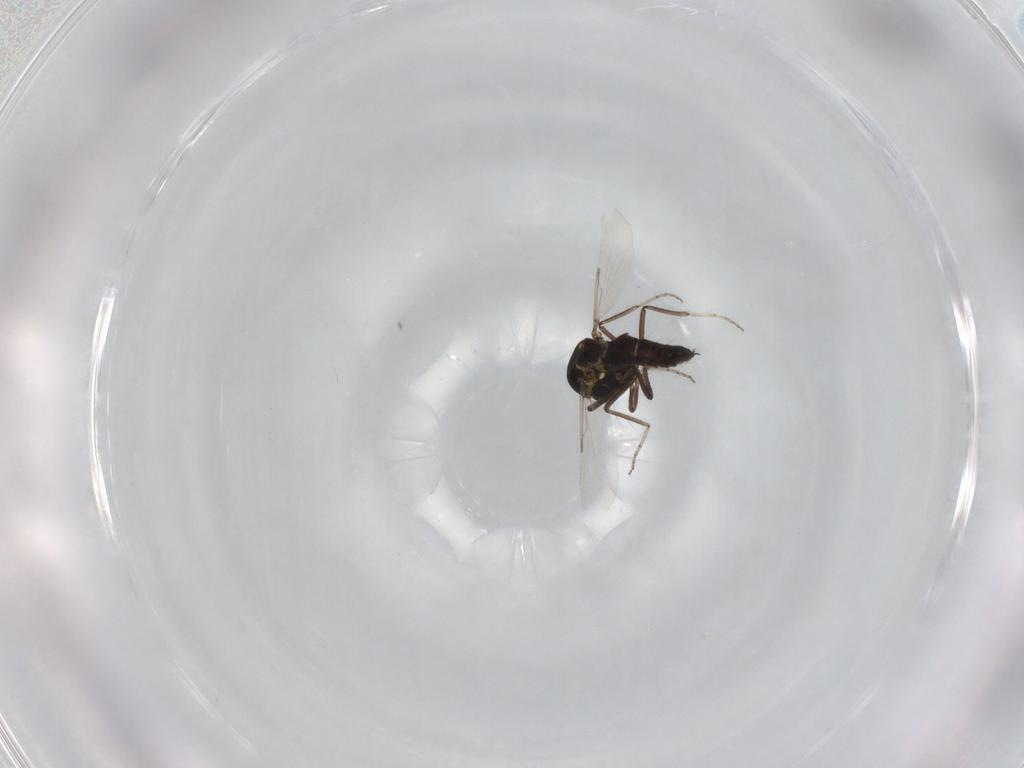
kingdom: Animalia
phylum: Arthropoda
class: Insecta
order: Diptera
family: Ceratopogonidae
